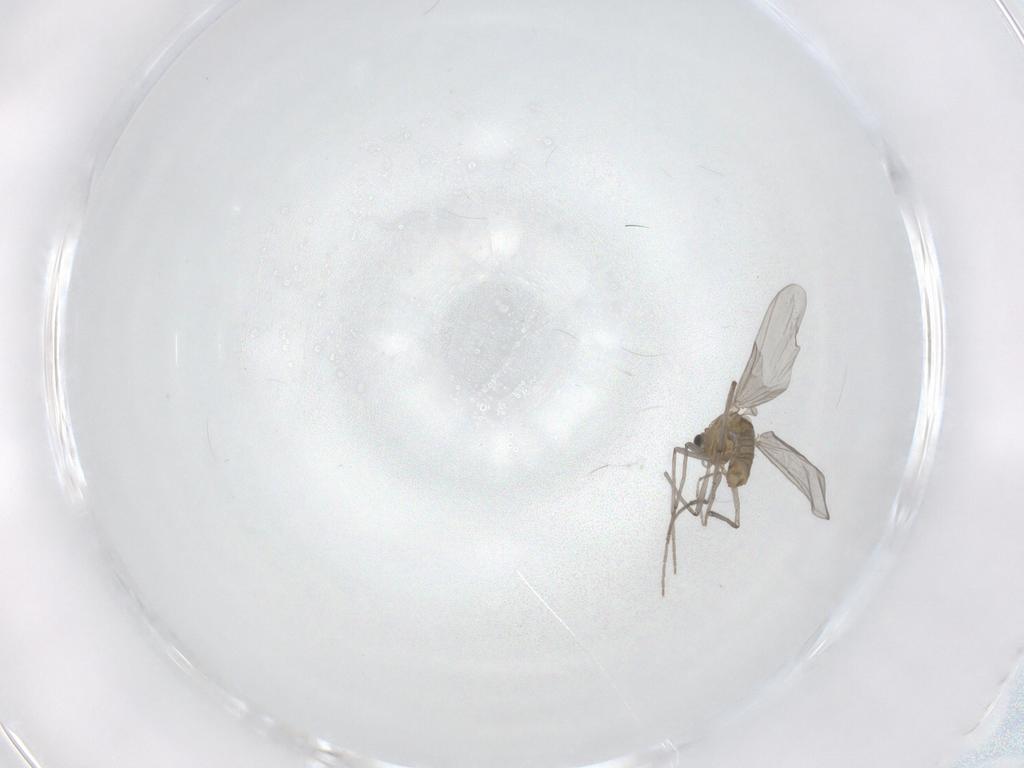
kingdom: Animalia
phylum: Arthropoda
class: Insecta
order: Diptera
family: Chironomidae
